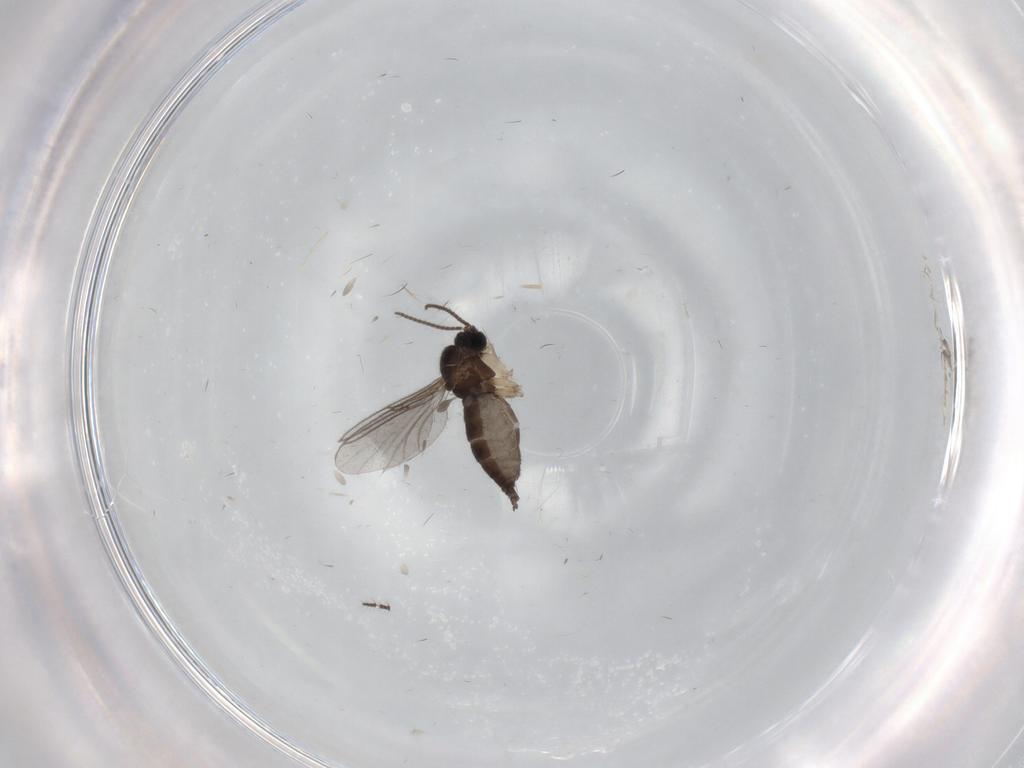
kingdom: Animalia
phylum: Arthropoda
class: Insecta
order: Diptera
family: Sciaridae
